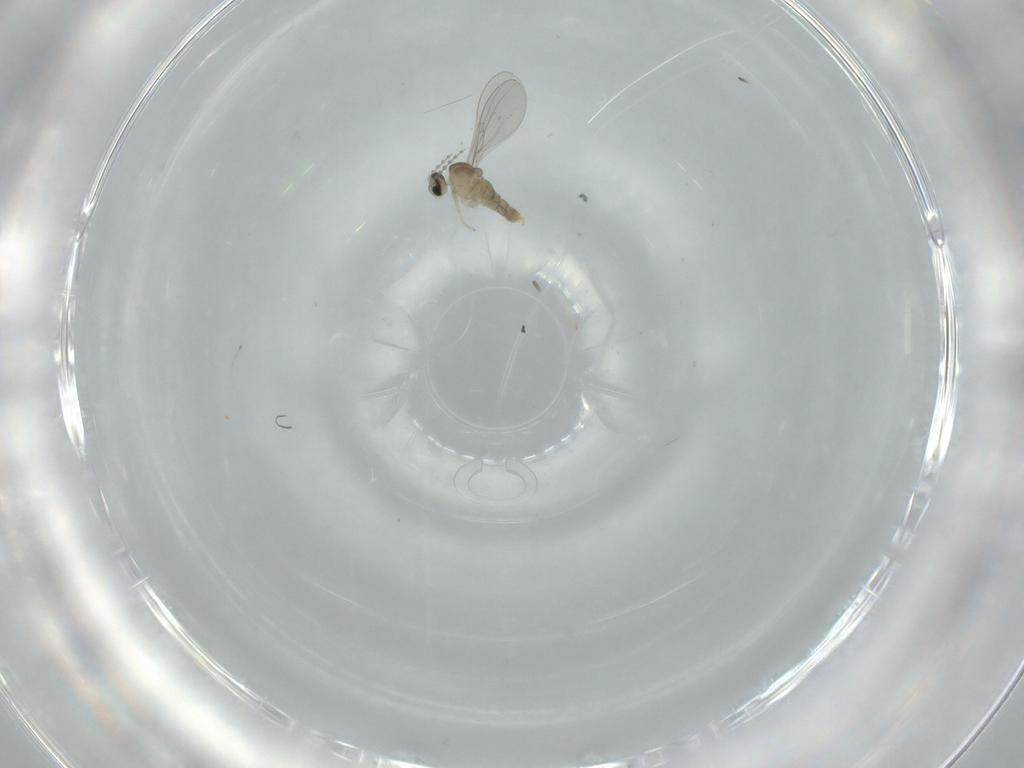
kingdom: Animalia
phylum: Arthropoda
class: Insecta
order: Diptera
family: Cecidomyiidae
